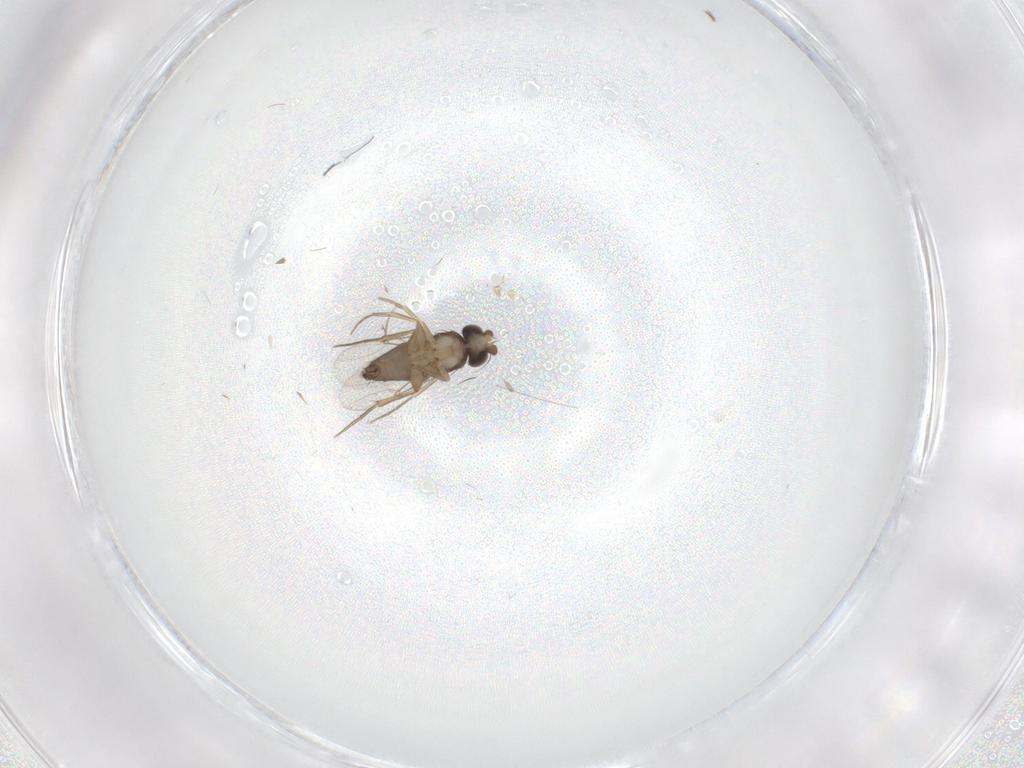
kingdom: Animalia
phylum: Arthropoda
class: Insecta
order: Diptera
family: Phoridae
